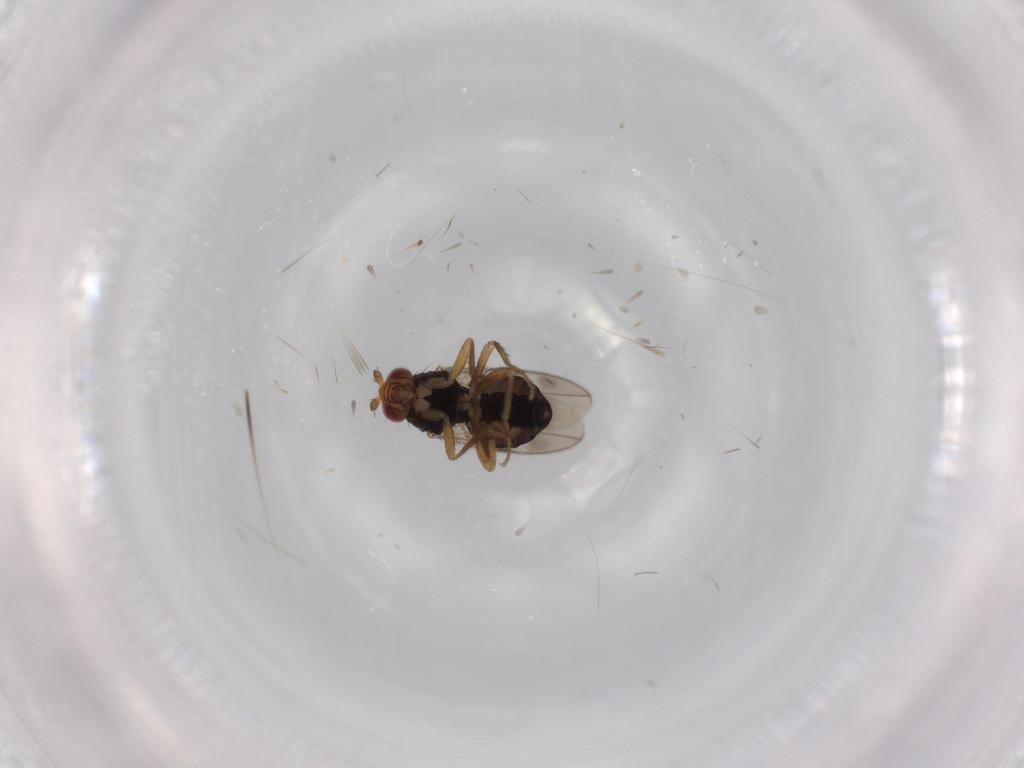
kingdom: Animalia
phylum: Arthropoda
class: Insecta
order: Diptera
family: Sphaeroceridae
